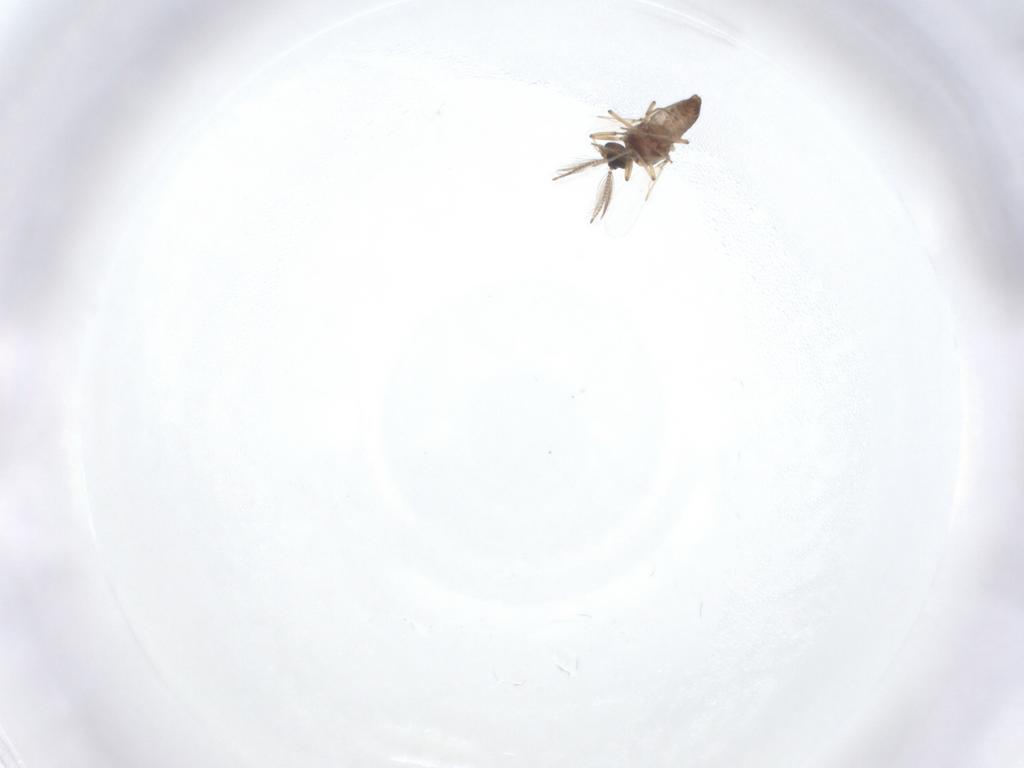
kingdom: Animalia
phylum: Arthropoda
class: Insecta
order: Diptera
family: Ceratopogonidae
